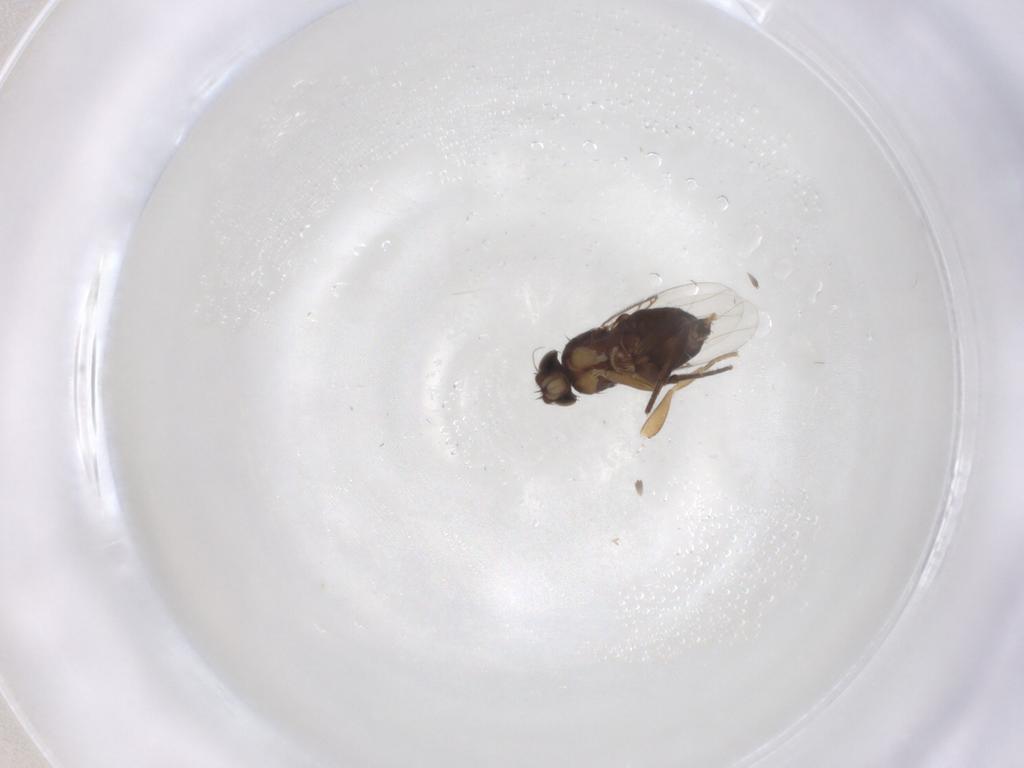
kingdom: Animalia
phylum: Arthropoda
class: Insecta
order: Diptera
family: Phoridae
